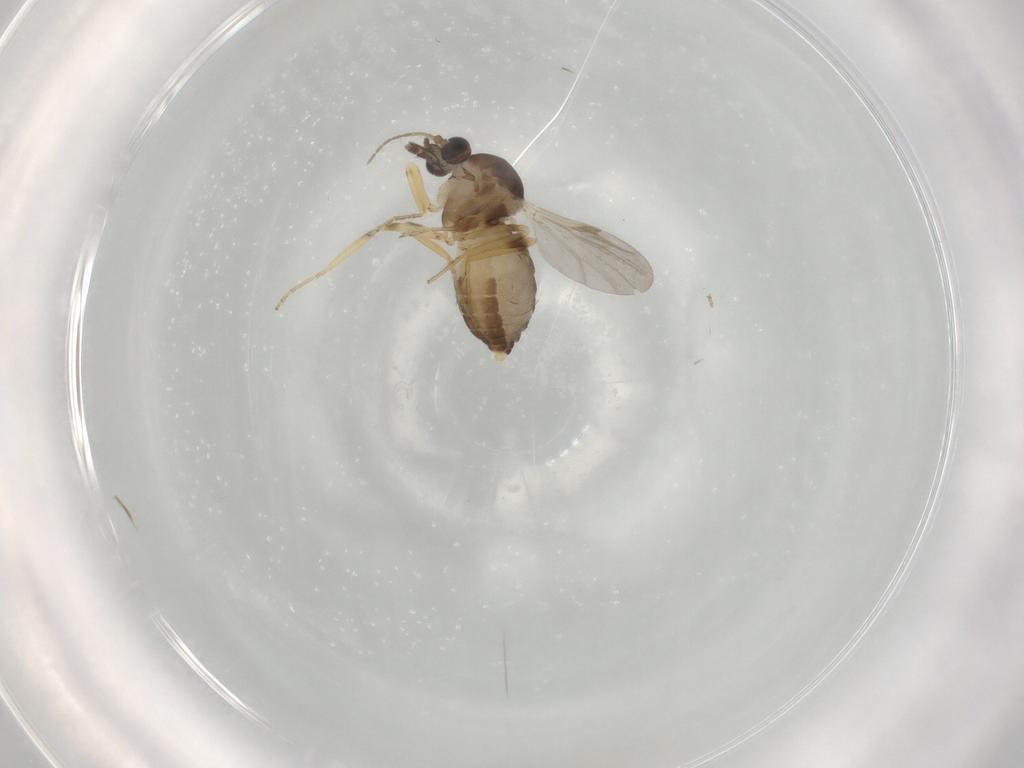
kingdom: Animalia
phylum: Arthropoda
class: Insecta
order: Diptera
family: Ceratopogonidae
